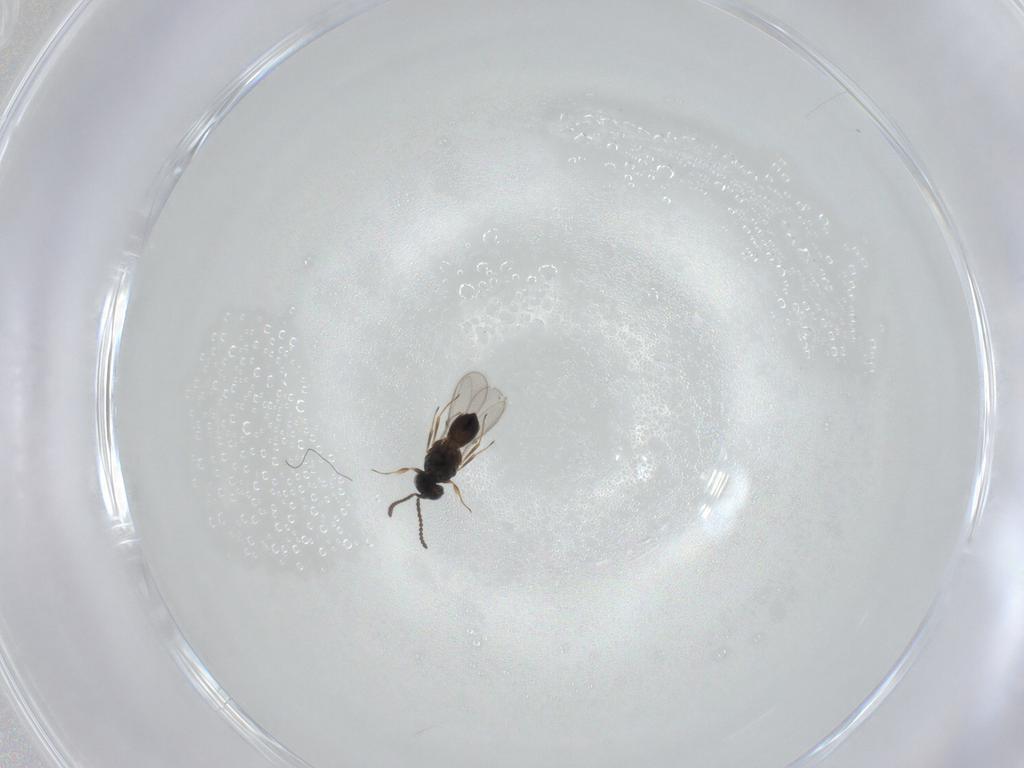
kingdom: Animalia
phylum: Arthropoda
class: Insecta
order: Hymenoptera
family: Scelionidae
